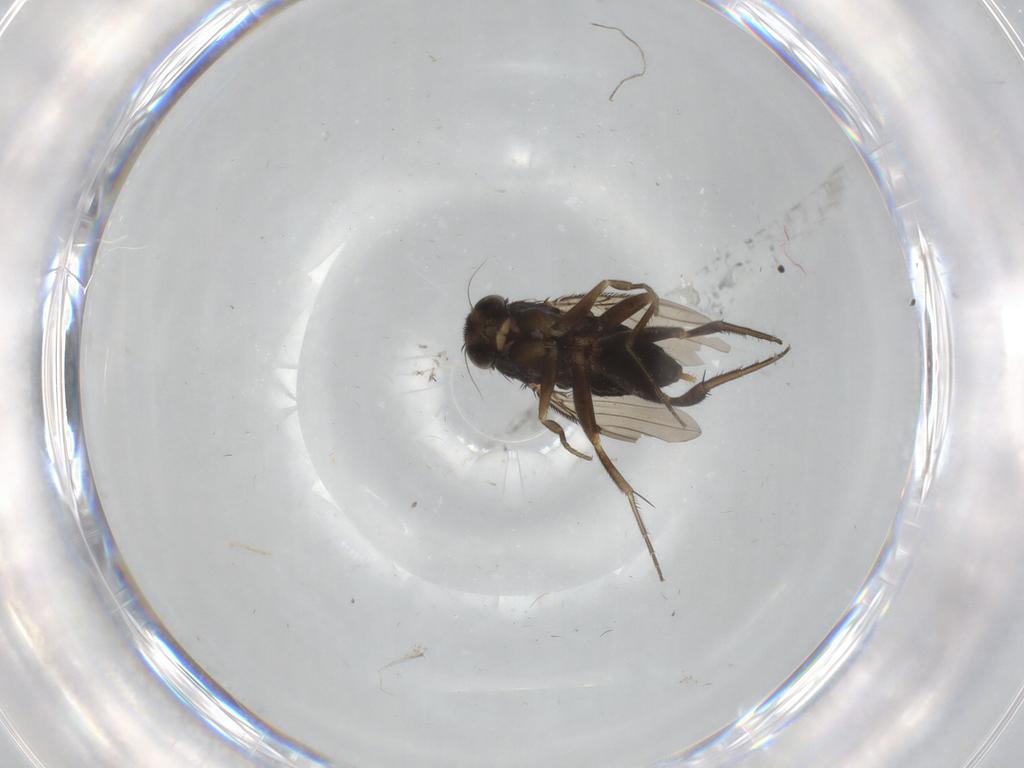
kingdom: Animalia
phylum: Arthropoda
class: Insecta
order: Diptera
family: Phoridae
